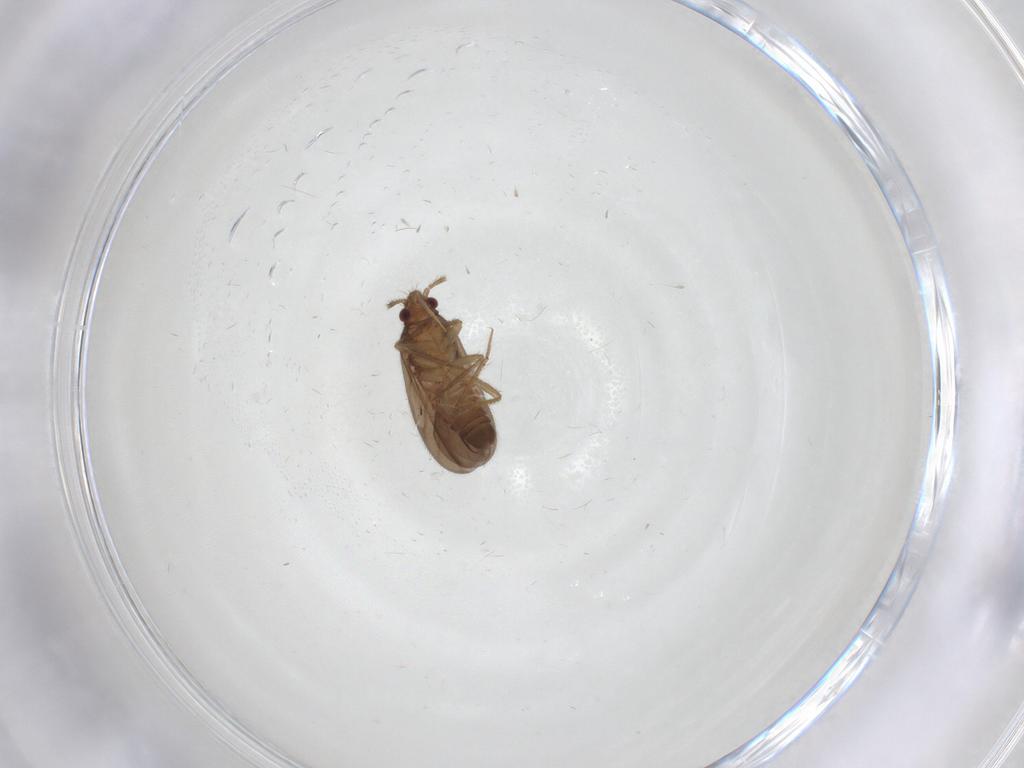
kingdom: Animalia
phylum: Arthropoda
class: Insecta
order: Hemiptera
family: Ceratocombidae
